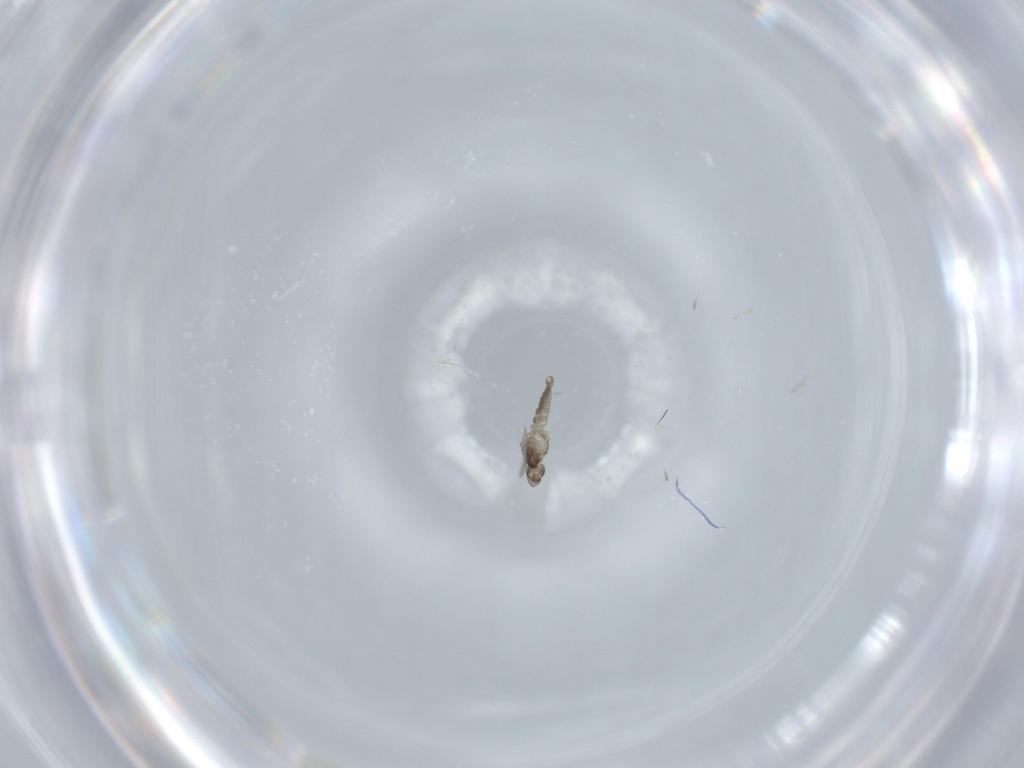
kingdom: Animalia
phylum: Arthropoda
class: Insecta
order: Diptera
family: Cecidomyiidae
